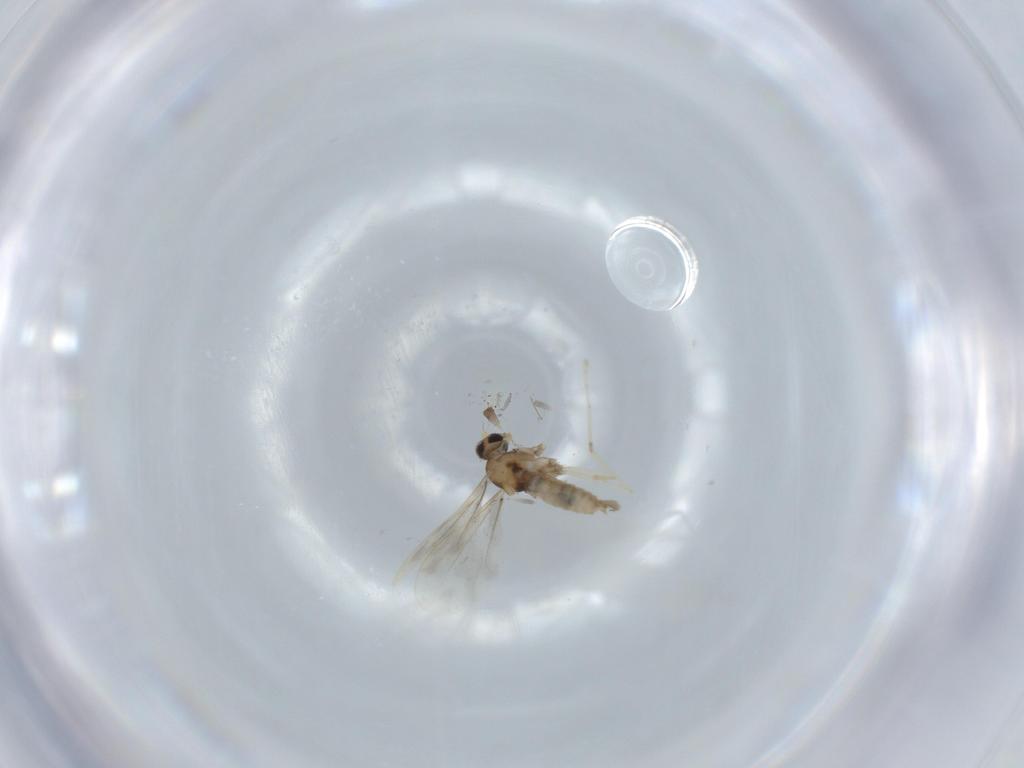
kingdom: Animalia
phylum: Arthropoda
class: Insecta
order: Diptera
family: Cecidomyiidae
